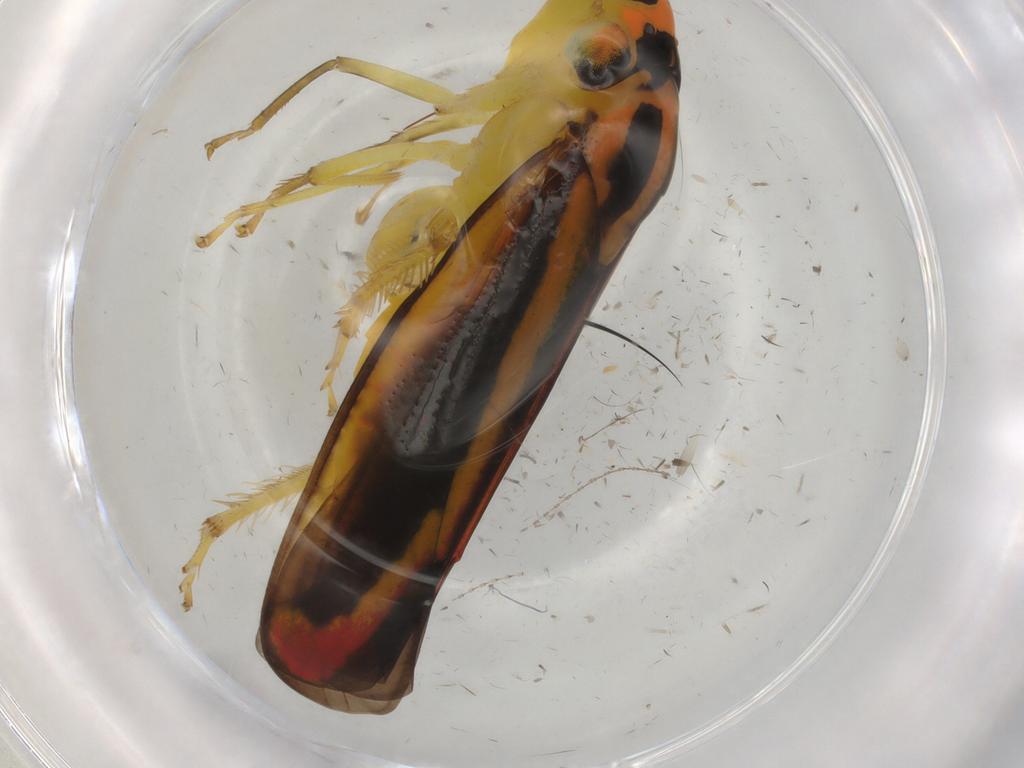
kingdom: Animalia
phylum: Arthropoda
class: Insecta
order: Hemiptera
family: Cicadellidae
